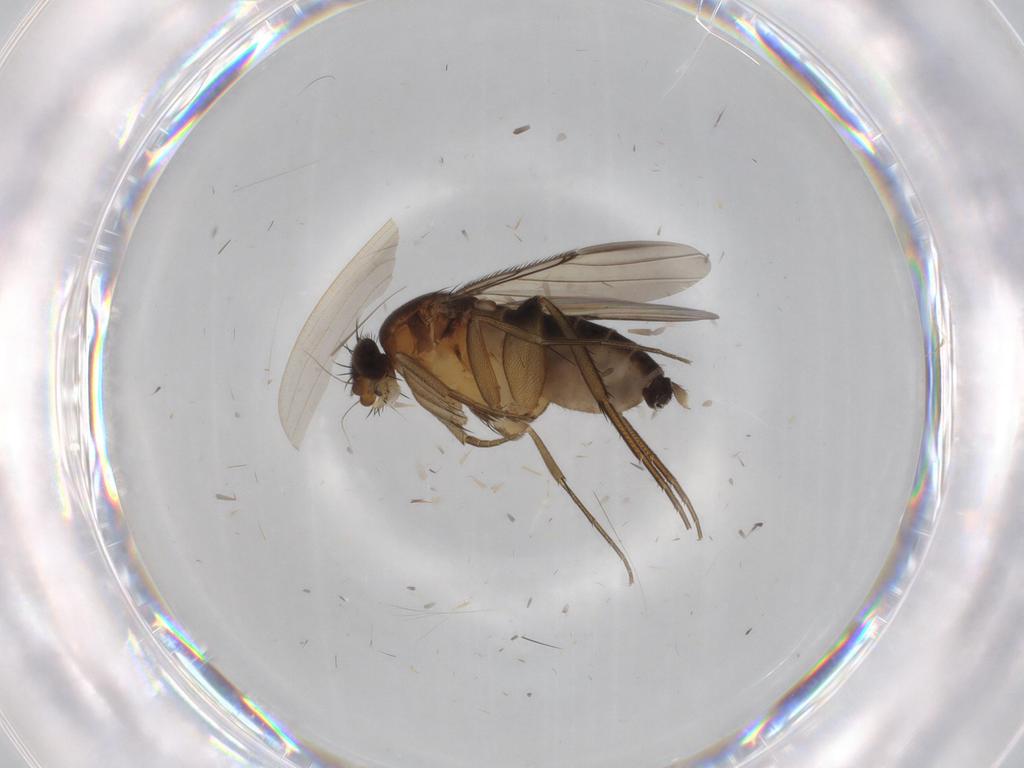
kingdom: Animalia
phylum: Arthropoda
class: Insecta
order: Diptera
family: Phoridae
